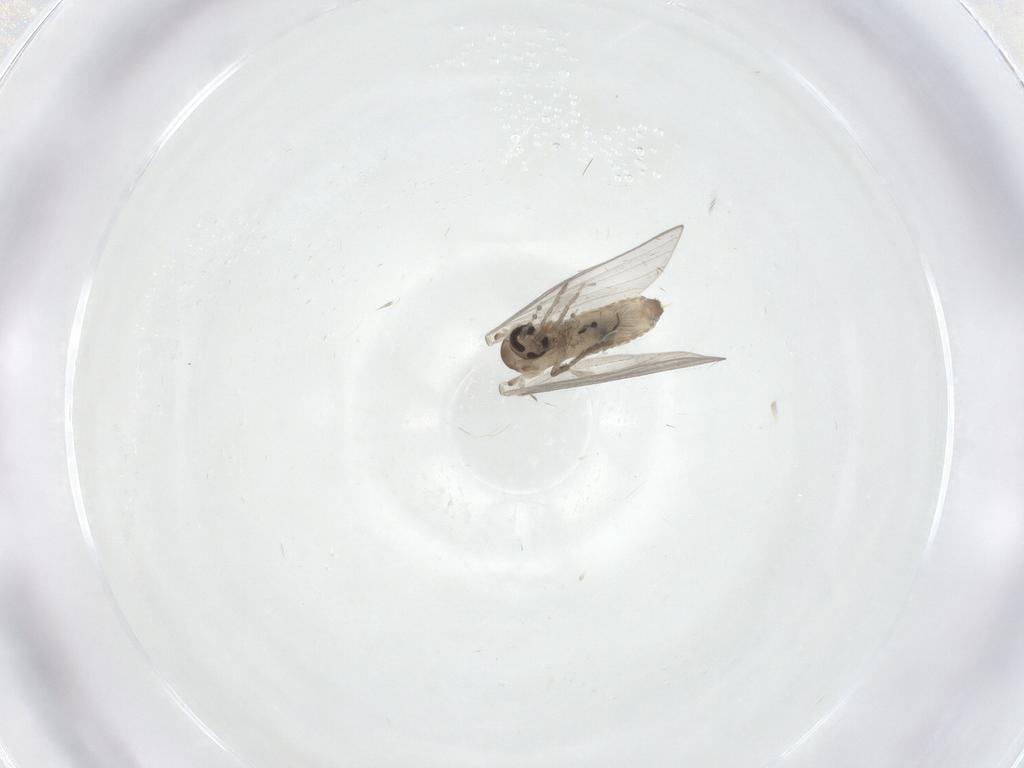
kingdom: Animalia
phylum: Arthropoda
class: Insecta
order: Diptera
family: Psychodidae
